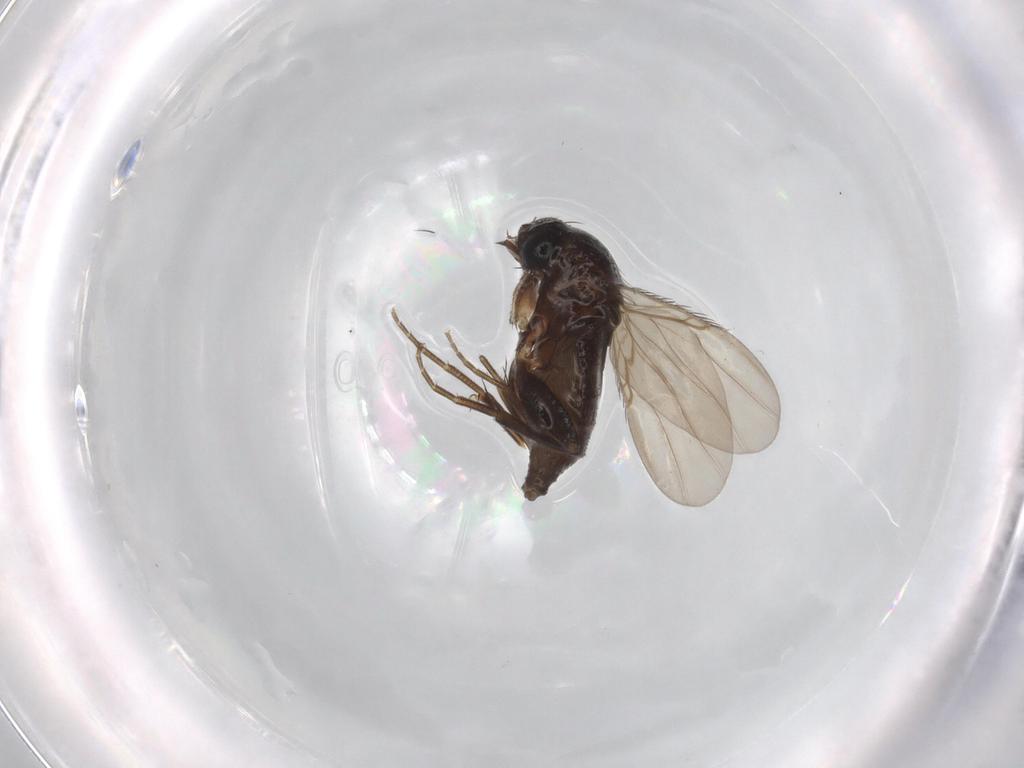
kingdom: Animalia
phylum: Arthropoda
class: Insecta
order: Diptera
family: Phoridae
